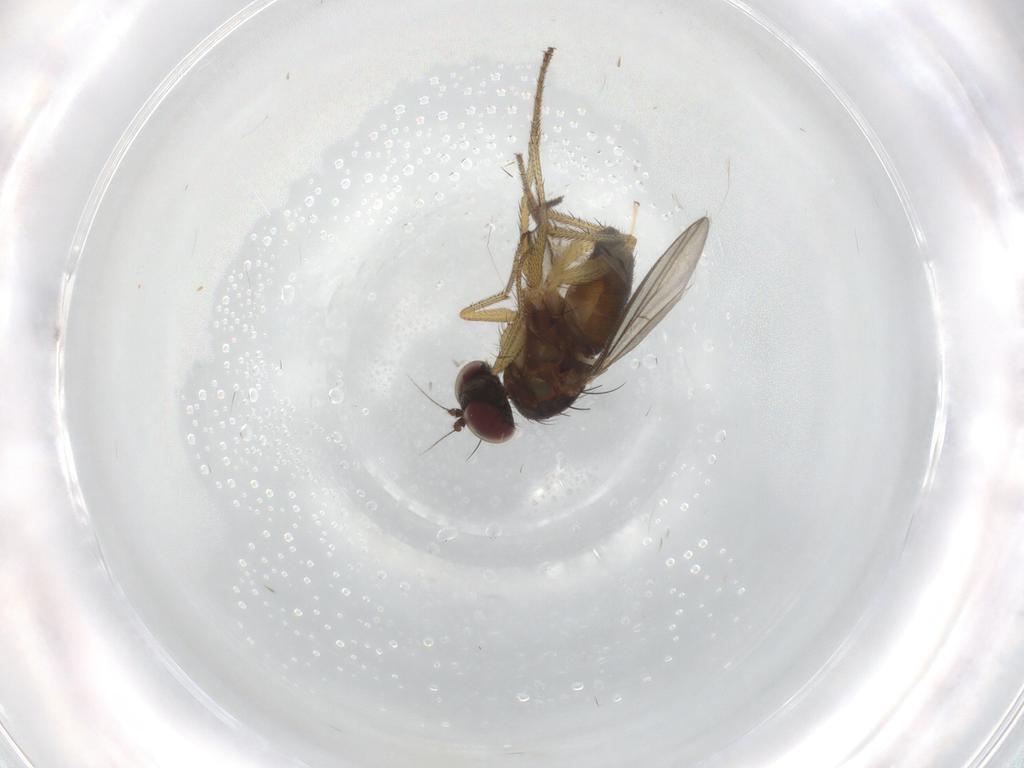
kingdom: Animalia
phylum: Arthropoda
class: Insecta
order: Diptera
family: Keroplatidae
